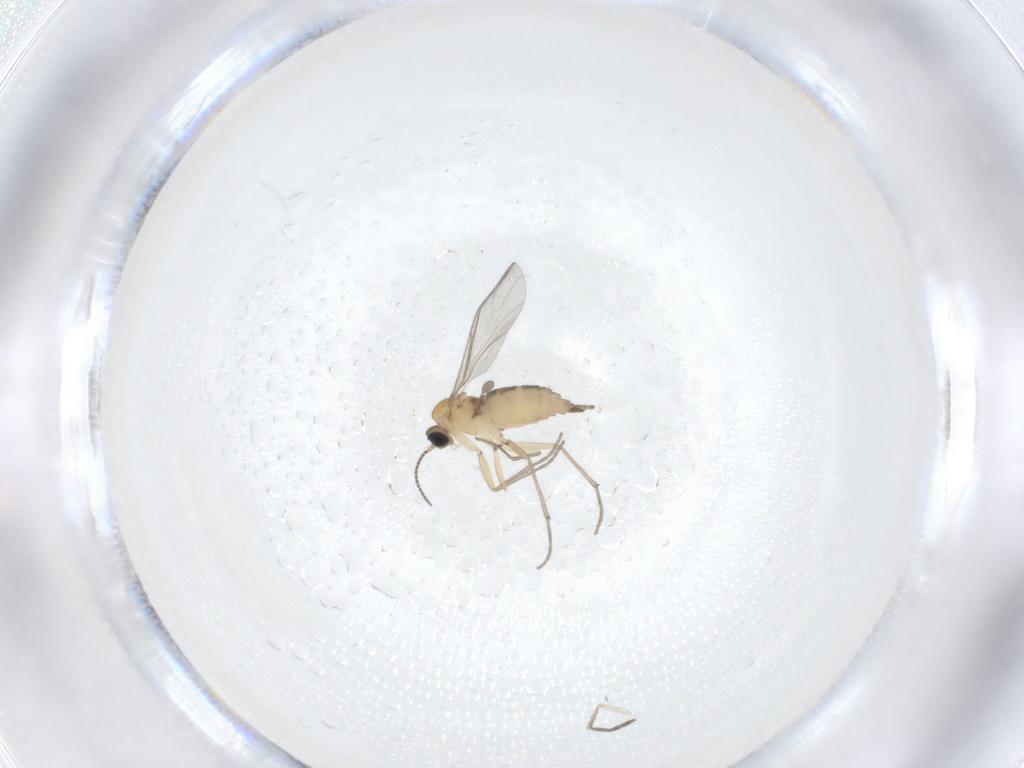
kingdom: Animalia
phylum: Arthropoda
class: Insecta
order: Diptera
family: Sciaridae
